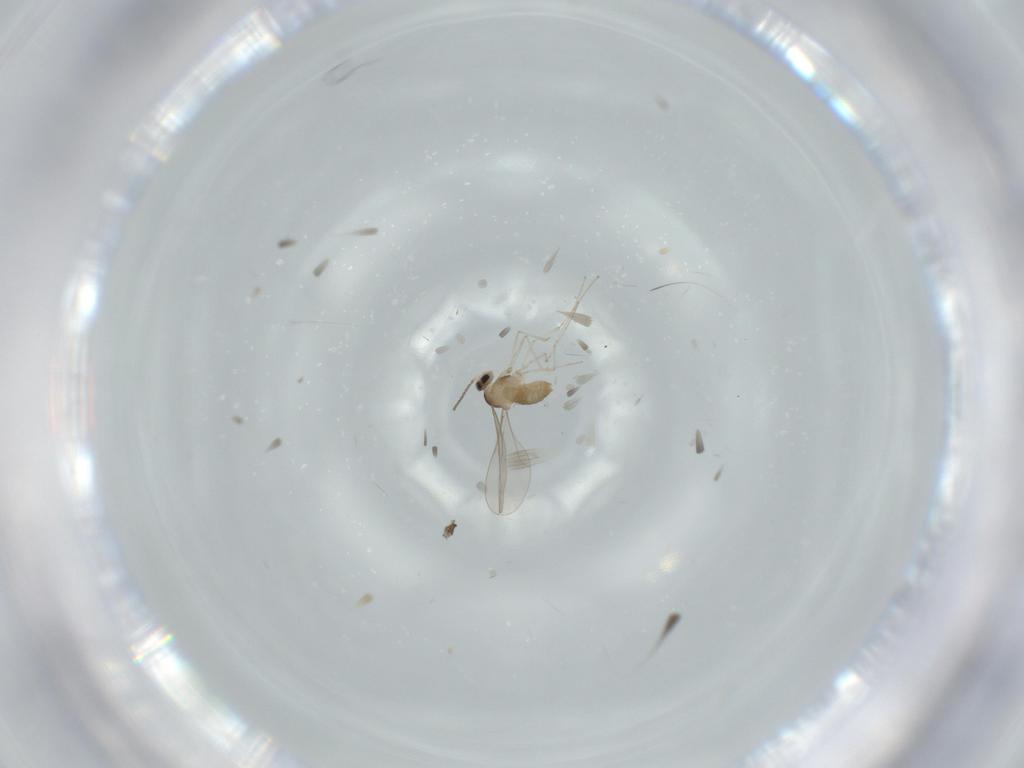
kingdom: Animalia
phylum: Arthropoda
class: Insecta
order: Diptera
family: Cecidomyiidae
